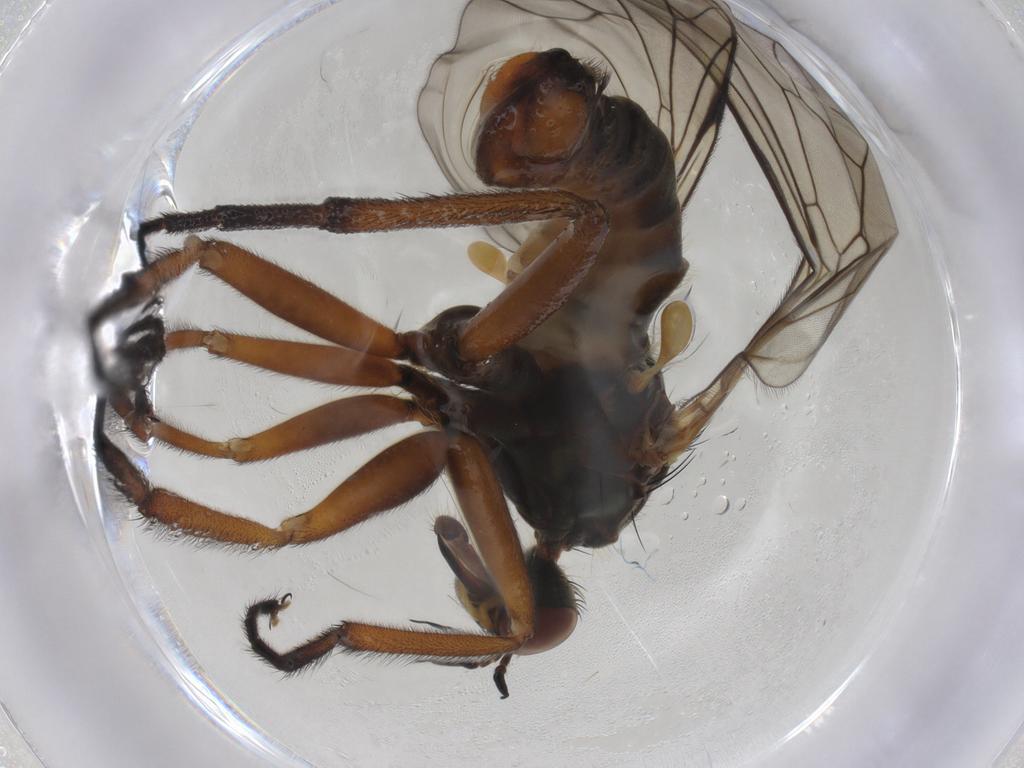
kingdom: Animalia
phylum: Arthropoda
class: Insecta
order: Diptera
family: Empididae
